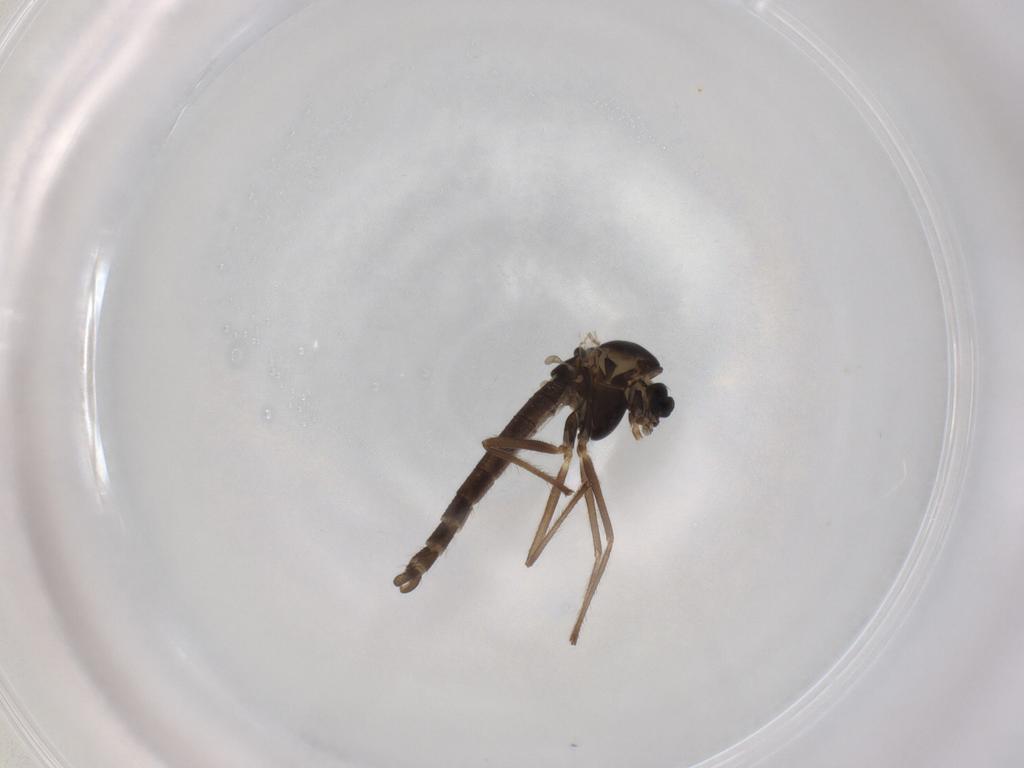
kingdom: Animalia
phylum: Arthropoda
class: Insecta
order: Diptera
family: Chironomidae
